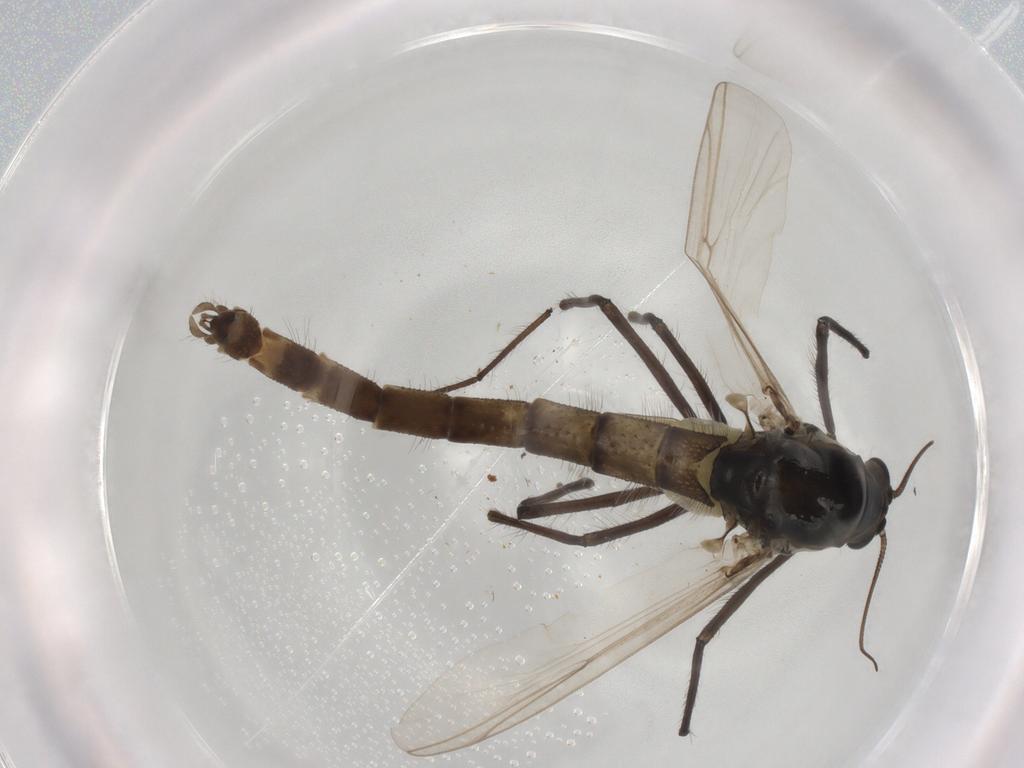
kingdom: Animalia
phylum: Arthropoda
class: Insecta
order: Diptera
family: Chironomidae
